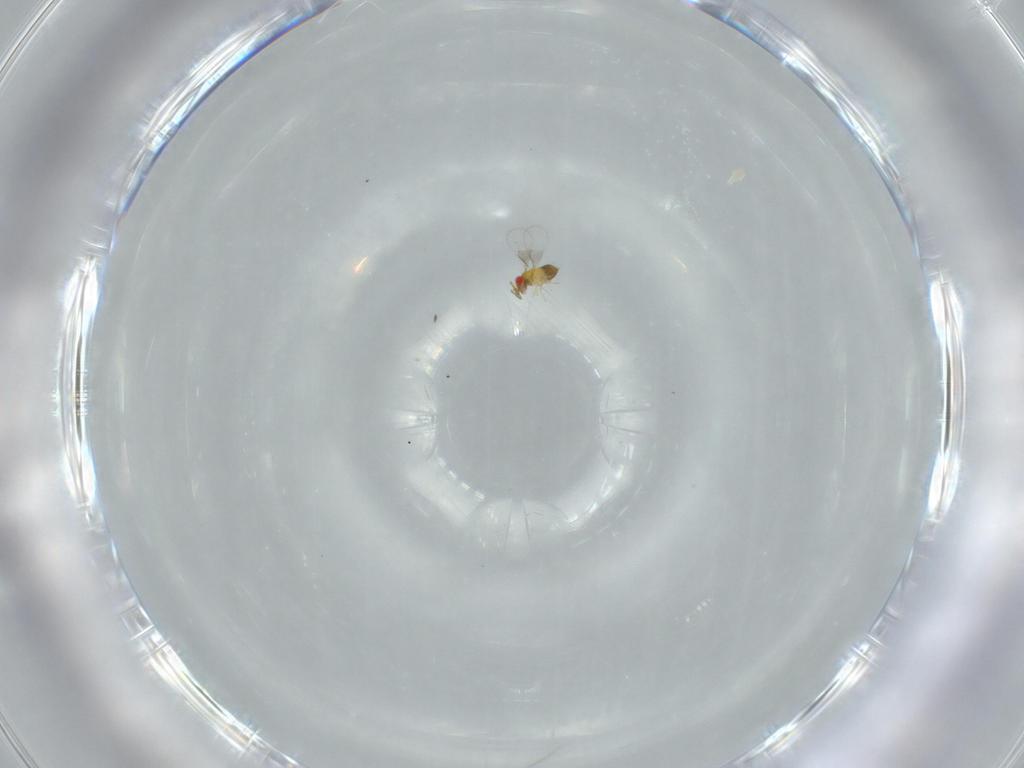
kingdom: Animalia
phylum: Arthropoda
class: Insecta
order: Hymenoptera
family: Trichogrammatidae
